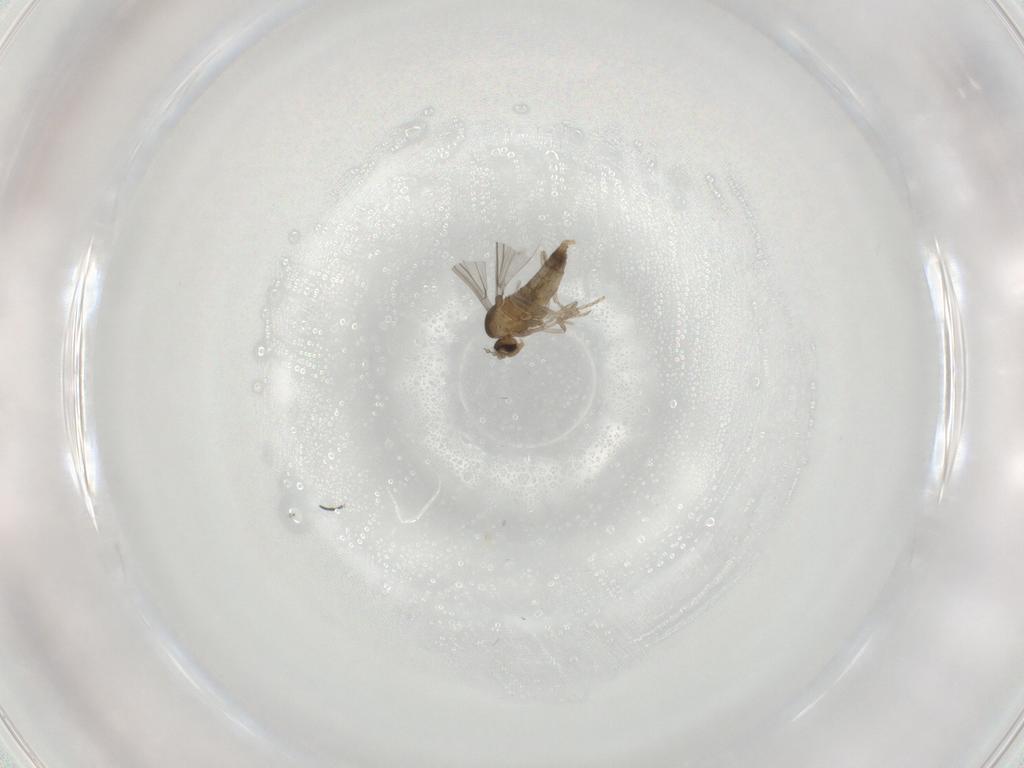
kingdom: Animalia
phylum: Arthropoda
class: Insecta
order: Diptera
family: Cecidomyiidae
